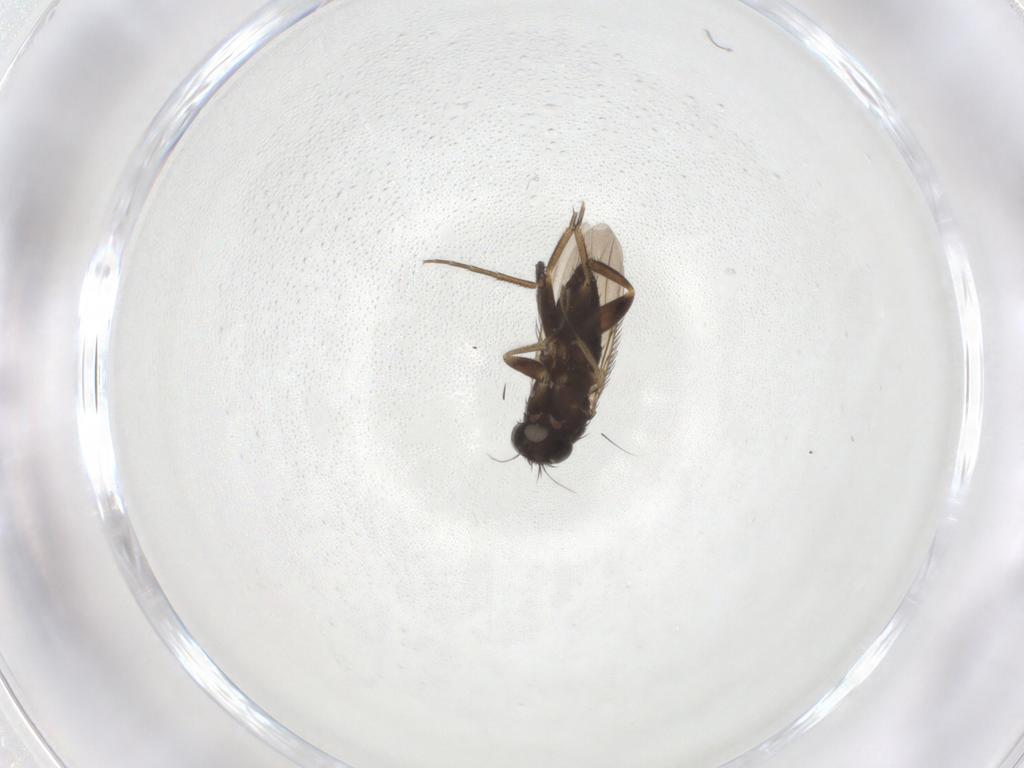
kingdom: Animalia
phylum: Arthropoda
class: Insecta
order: Diptera
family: Phoridae
